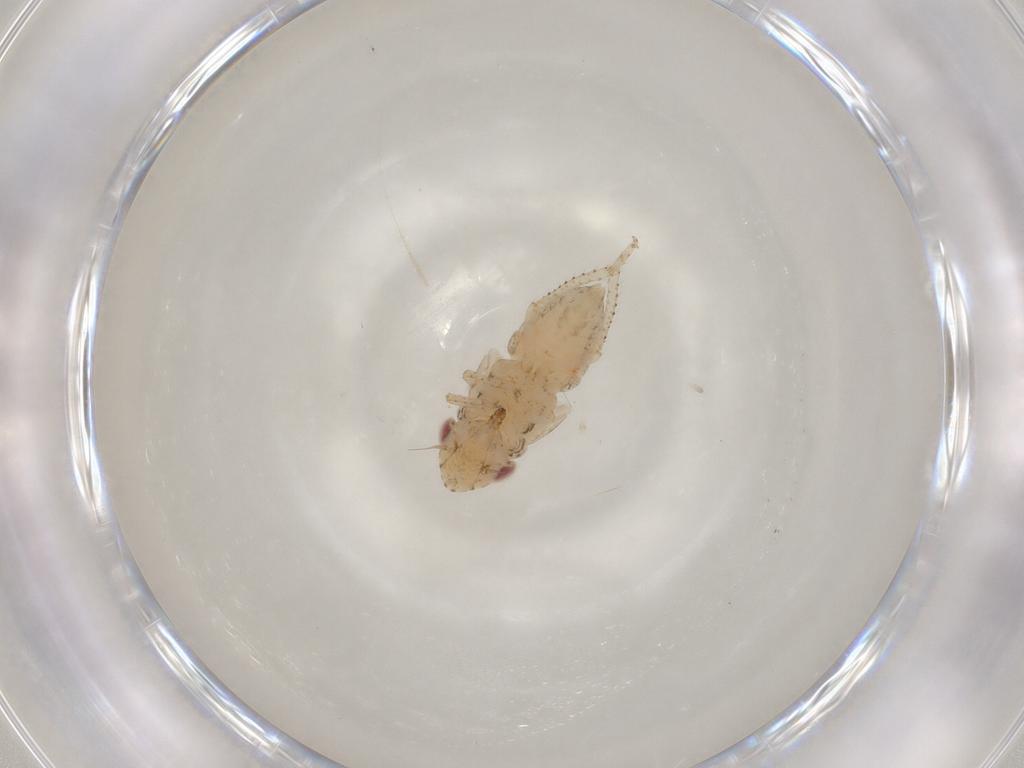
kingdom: Animalia
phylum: Arthropoda
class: Insecta
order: Hemiptera
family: Cicadellidae
